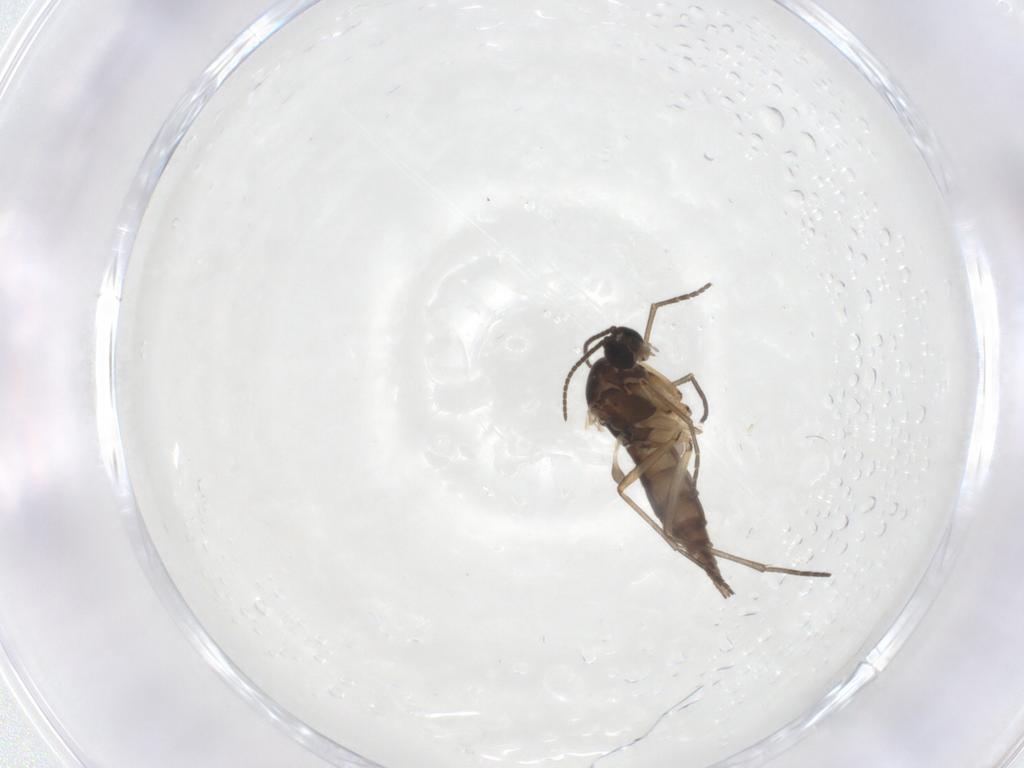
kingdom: Animalia
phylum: Arthropoda
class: Insecta
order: Diptera
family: Sciaridae
